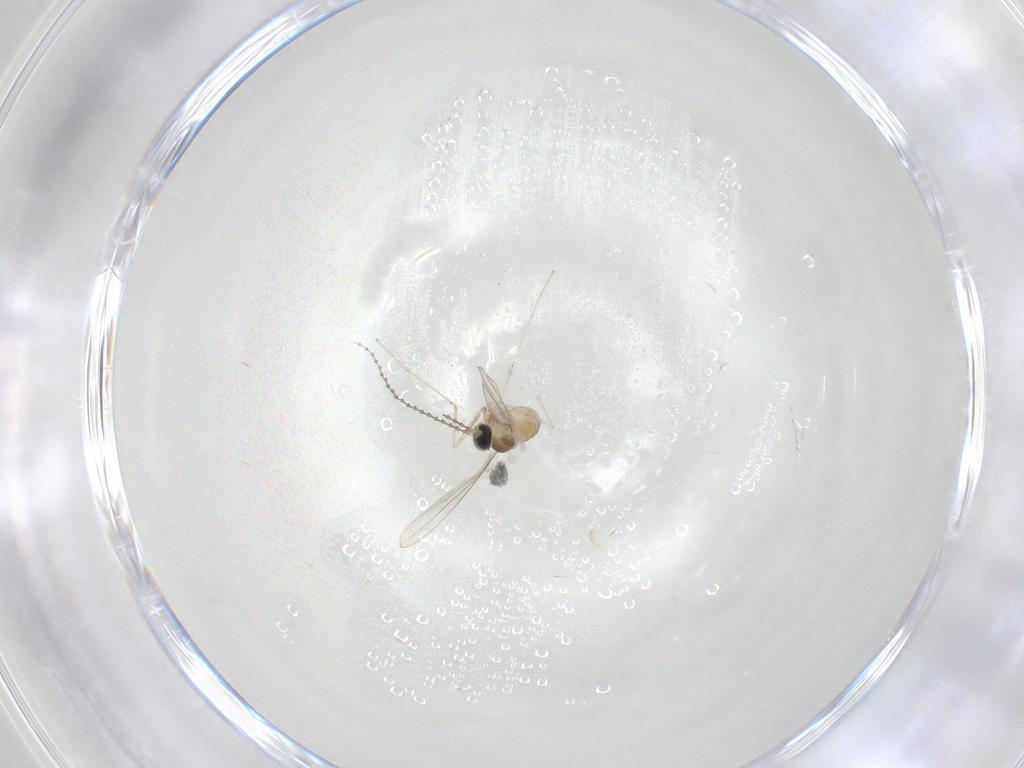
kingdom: Animalia
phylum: Arthropoda
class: Insecta
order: Diptera
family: Cecidomyiidae
